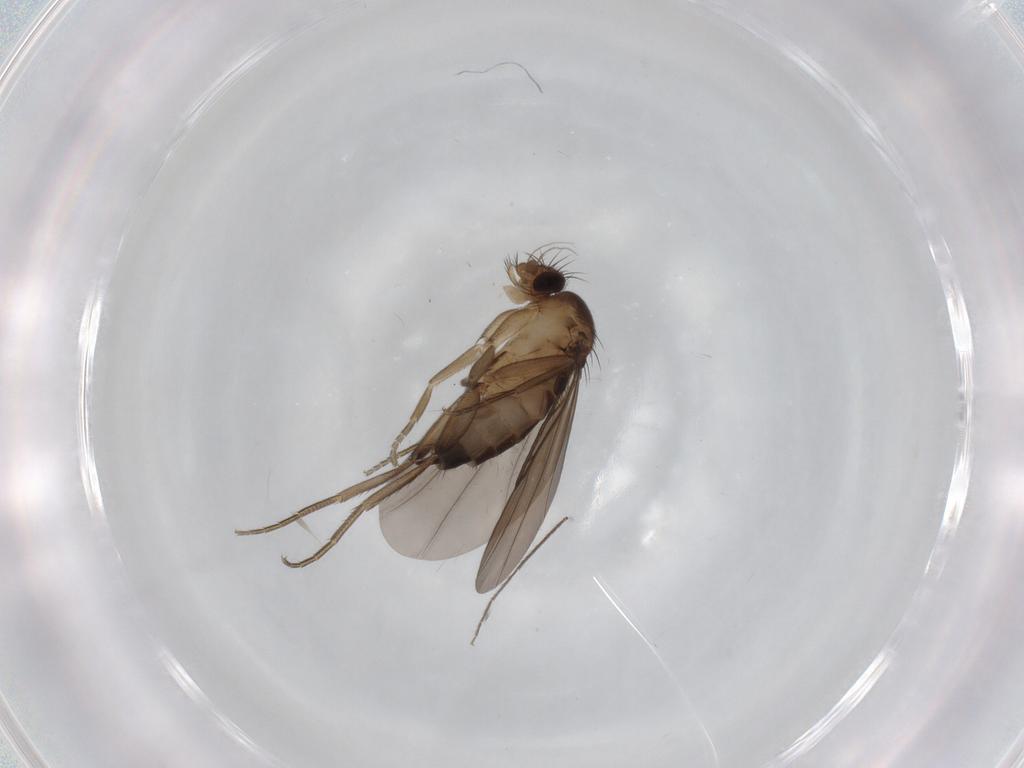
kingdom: Animalia
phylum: Arthropoda
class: Insecta
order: Diptera
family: Phoridae
